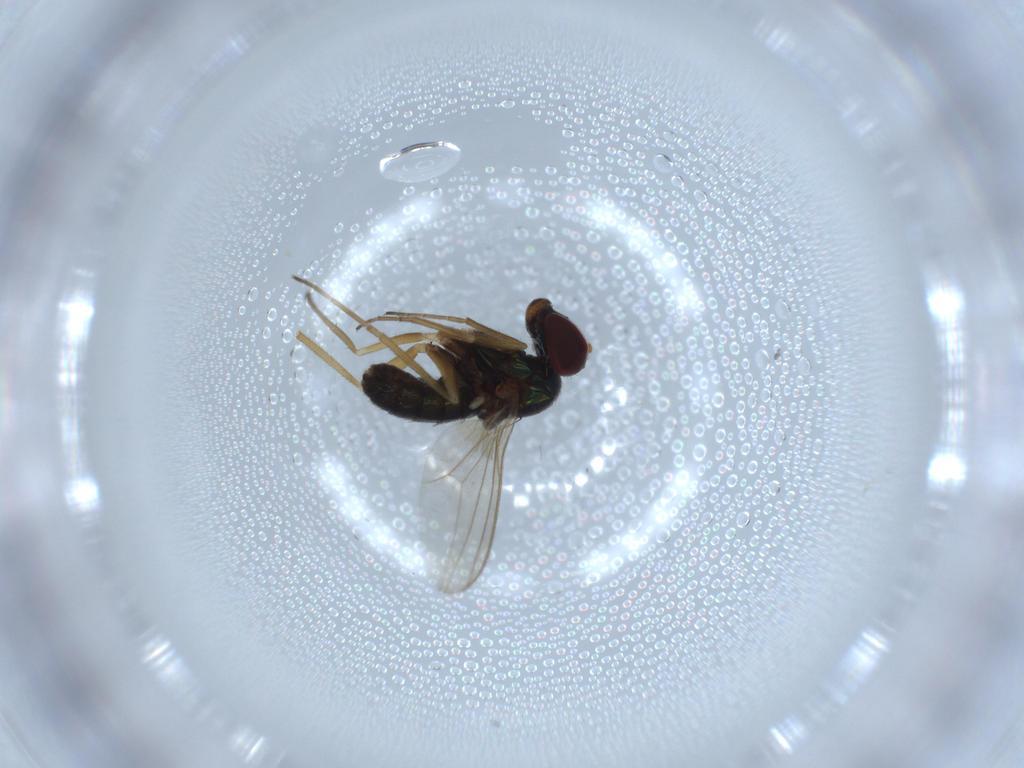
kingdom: Animalia
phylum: Arthropoda
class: Insecta
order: Diptera
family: Dolichopodidae
